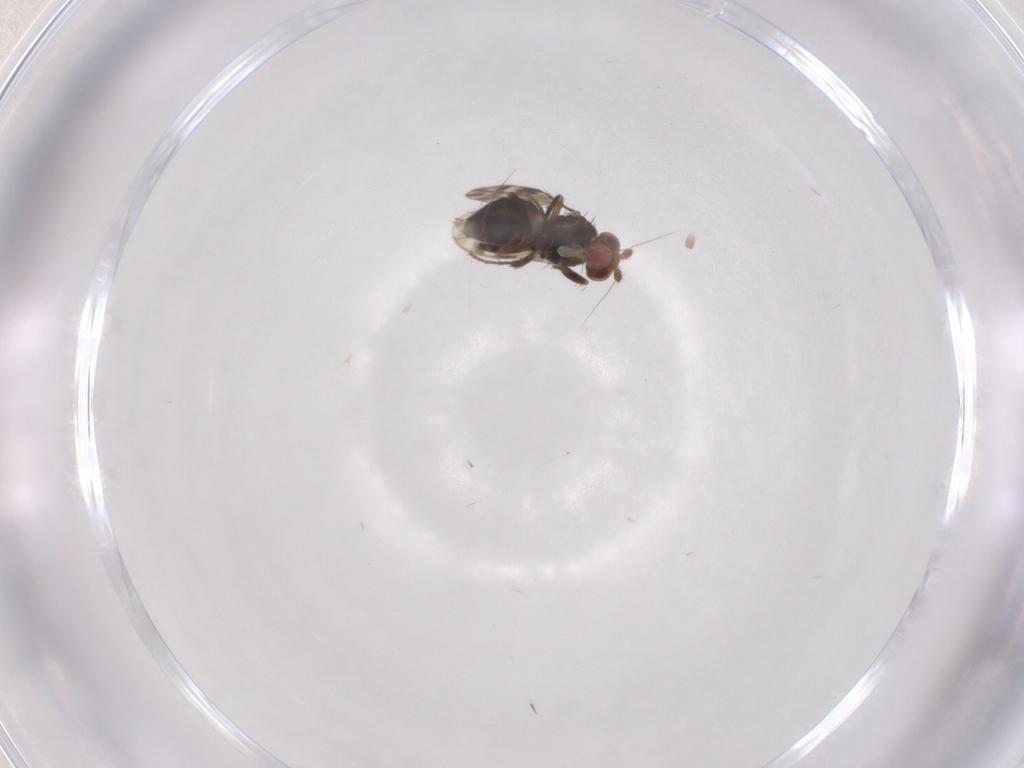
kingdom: Animalia
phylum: Arthropoda
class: Insecta
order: Diptera
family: Sphaeroceridae
